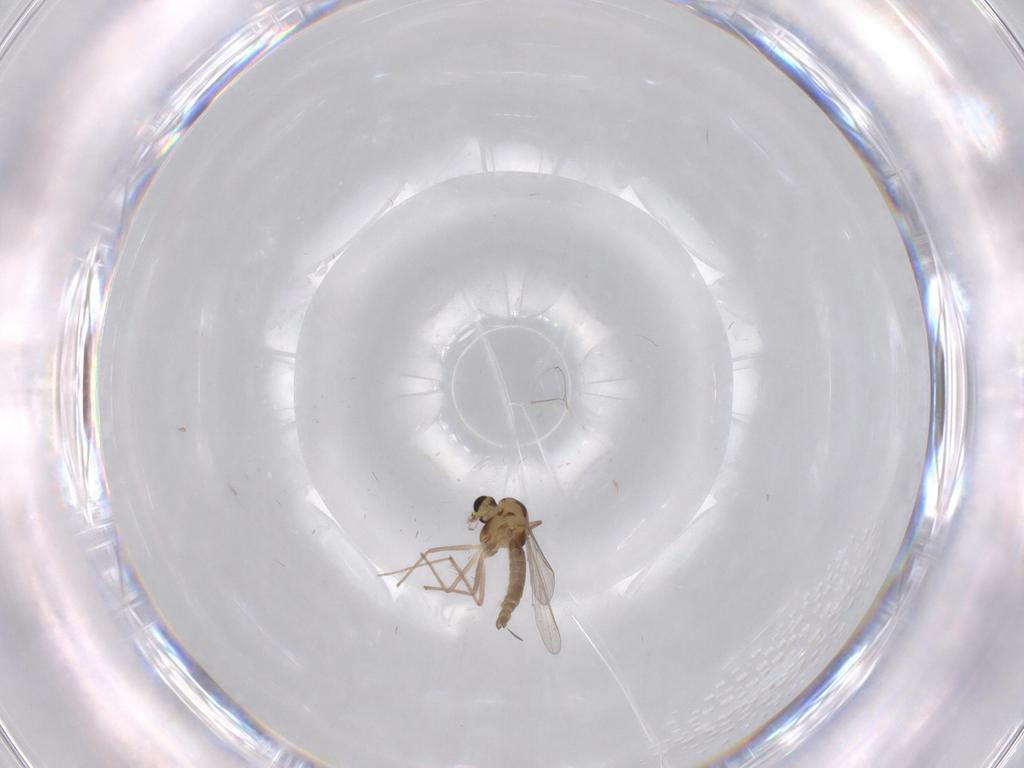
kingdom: Animalia
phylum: Arthropoda
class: Insecta
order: Diptera
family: Chironomidae
